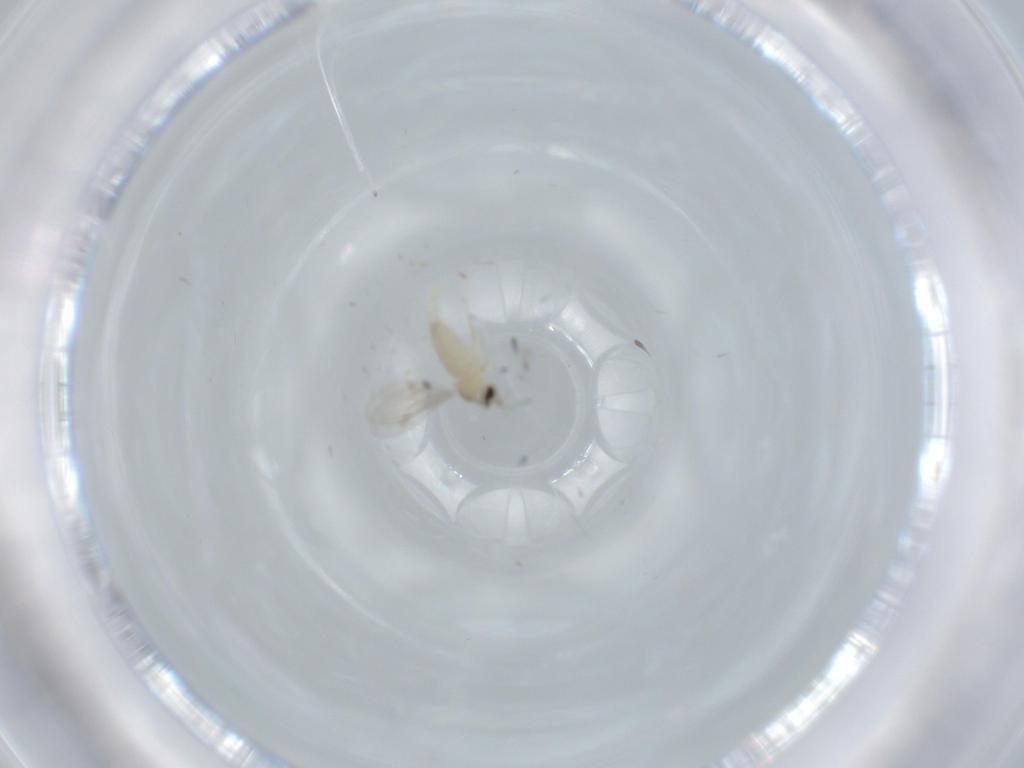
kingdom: Animalia
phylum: Arthropoda
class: Insecta
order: Diptera
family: Cecidomyiidae
